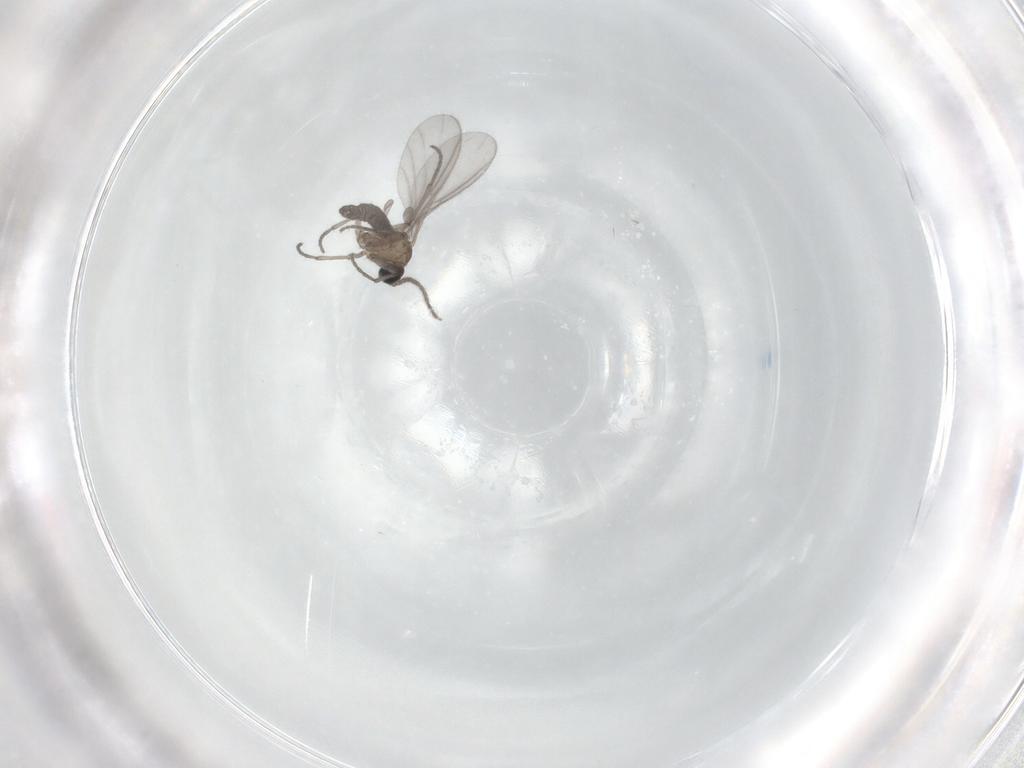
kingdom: Animalia
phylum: Arthropoda
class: Insecta
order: Diptera
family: Sciaridae
